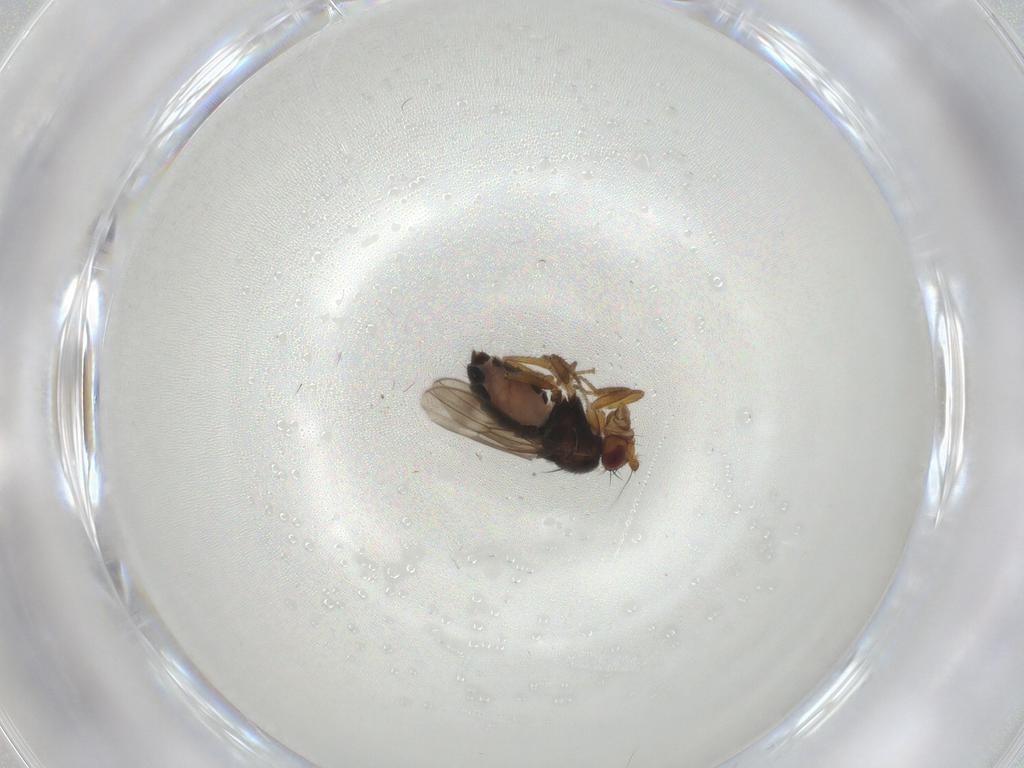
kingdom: Animalia
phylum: Arthropoda
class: Insecta
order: Diptera
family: Sphaeroceridae
